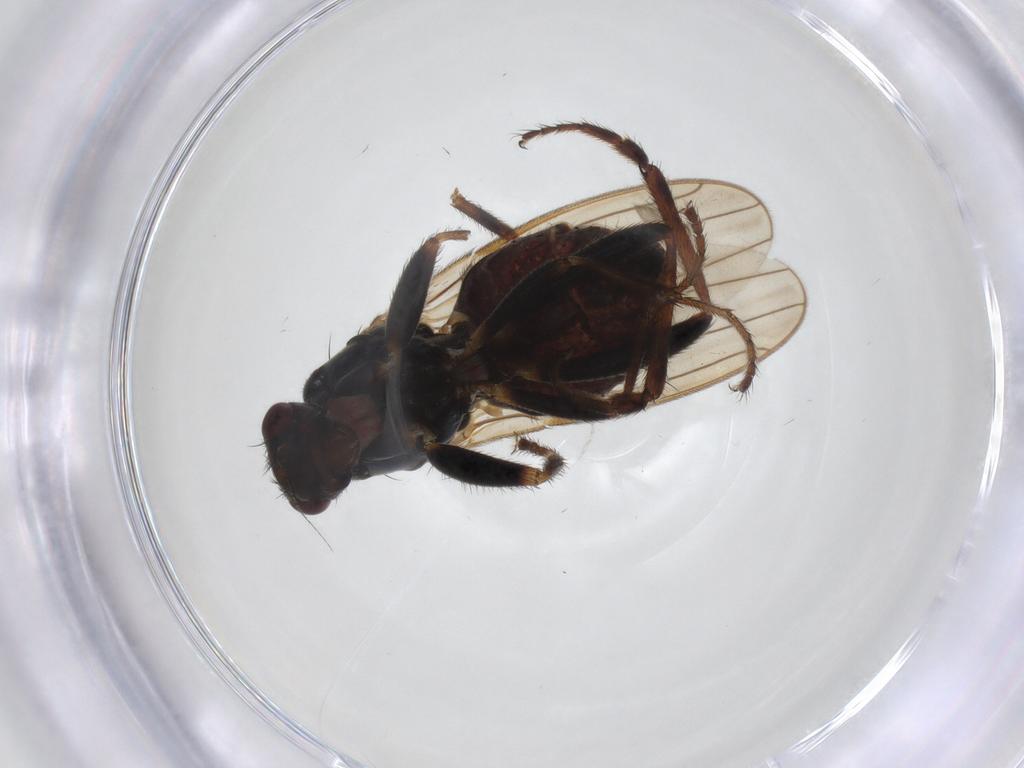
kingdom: Animalia
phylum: Arthropoda
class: Insecta
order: Diptera
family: Sphaeroceridae
